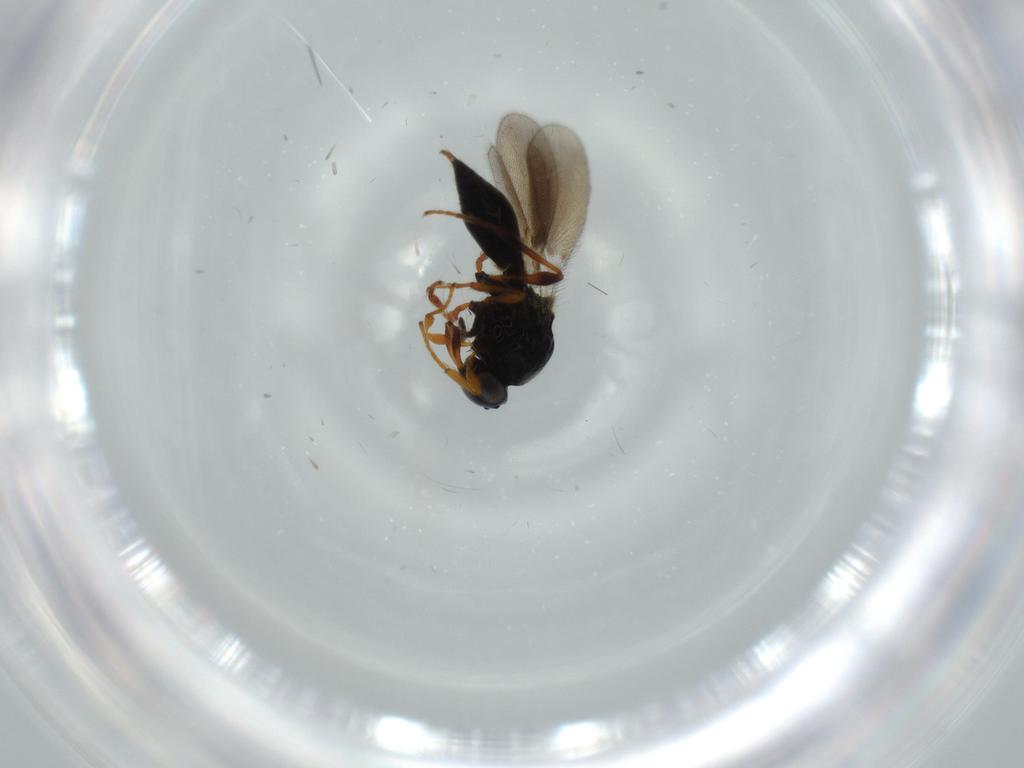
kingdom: Animalia
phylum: Arthropoda
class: Insecta
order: Hymenoptera
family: Platygastridae
